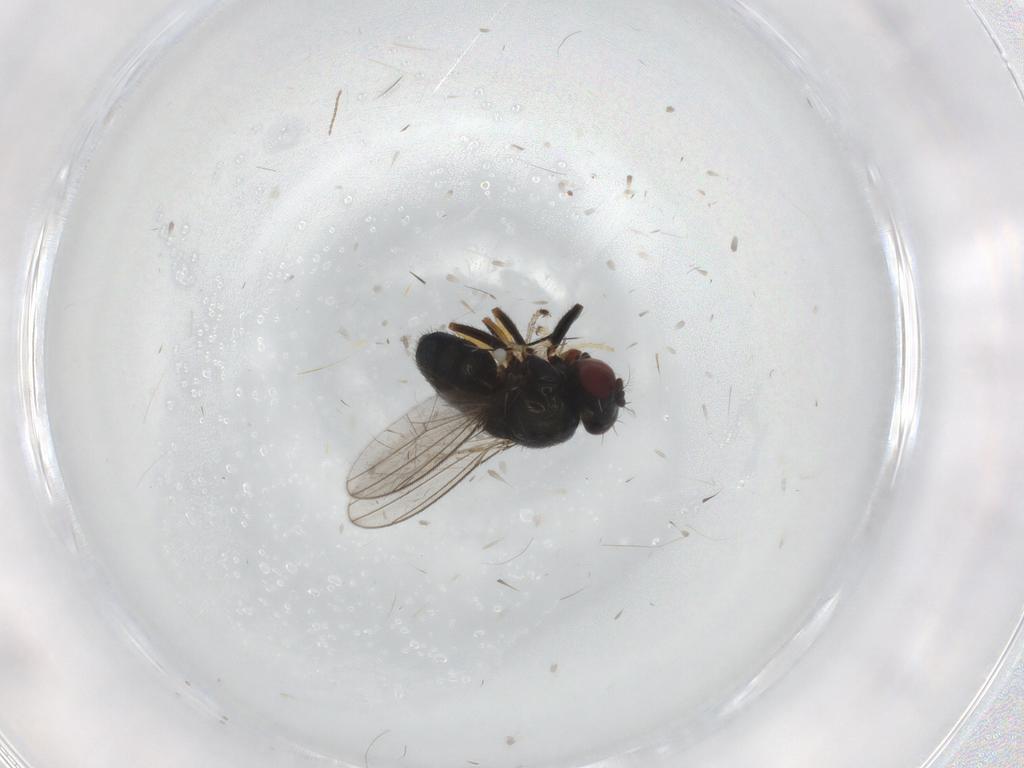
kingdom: Animalia
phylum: Arthropoda
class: Insecta
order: Diptera
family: Ephydridae
